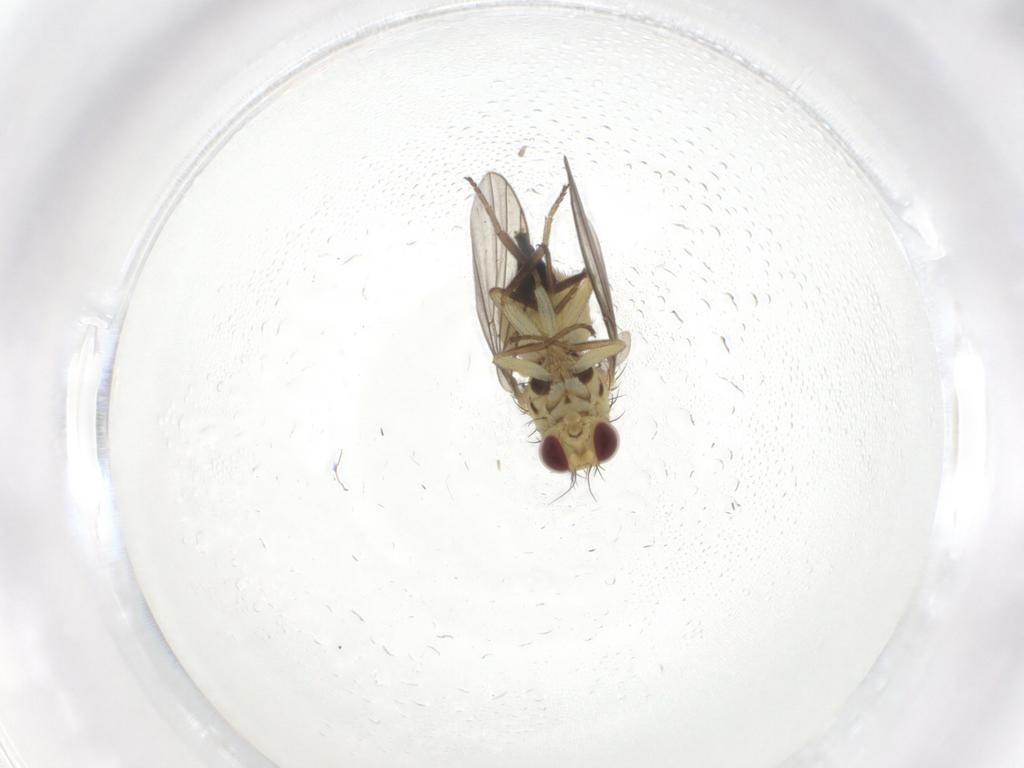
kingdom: Animalia
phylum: Arthropoda
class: Insecta
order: Diptera
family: Agromyzidae
